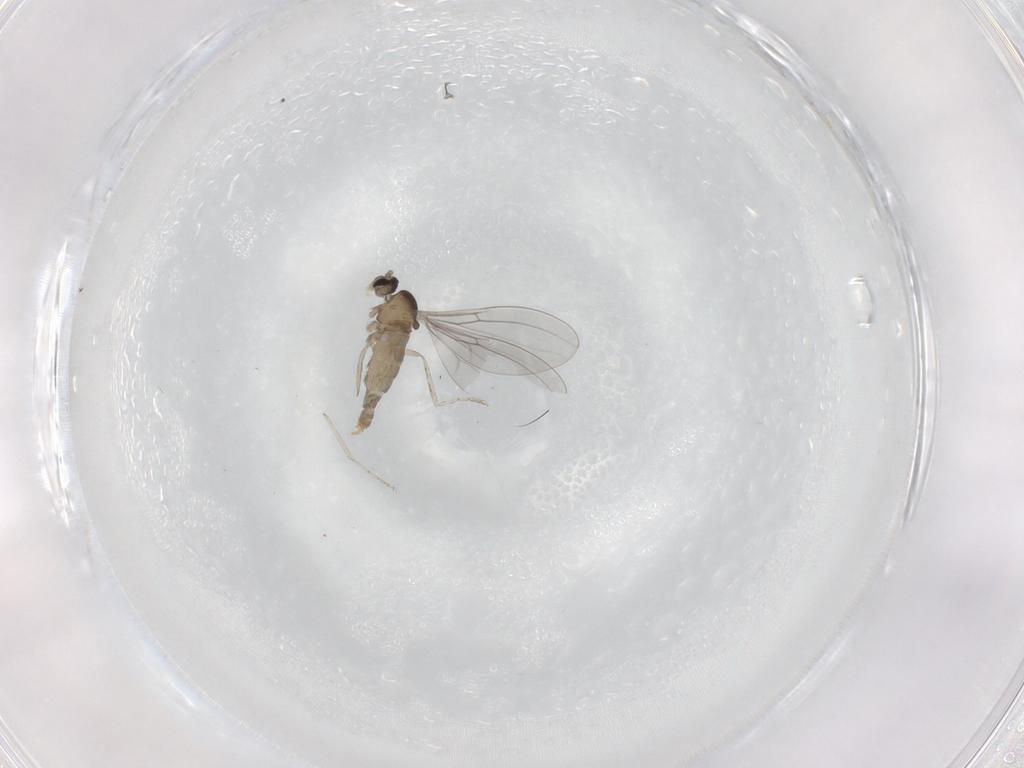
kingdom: Animalia
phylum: Arthropoda
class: Insecta
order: Diptera
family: Cecidomyiidae
